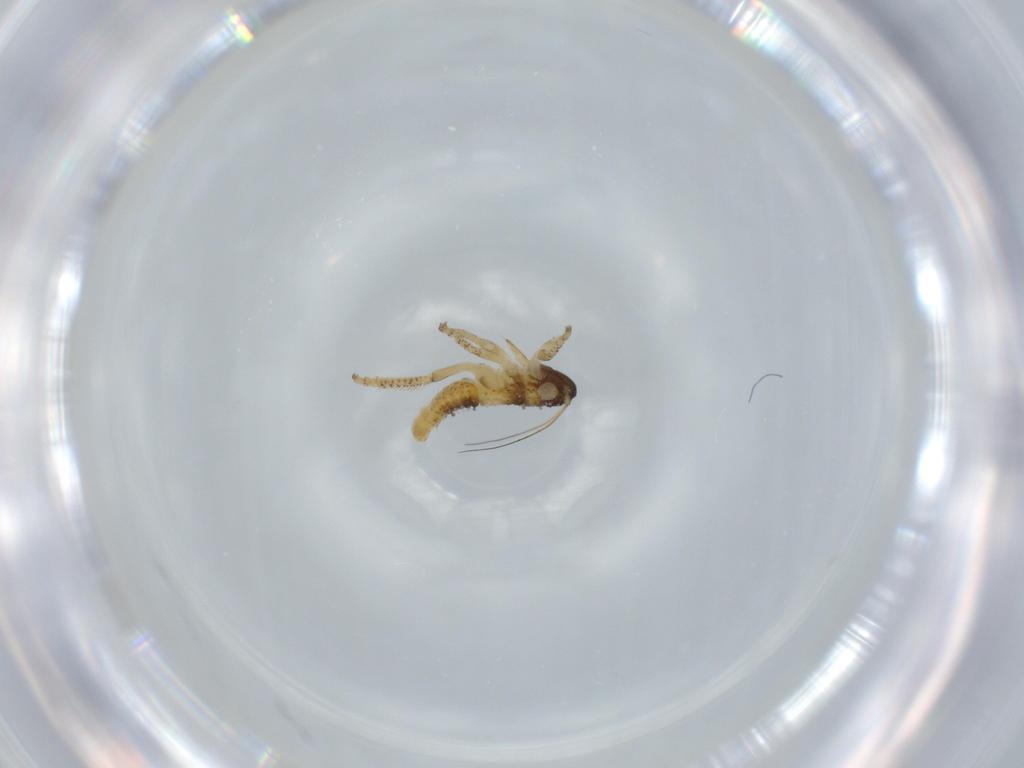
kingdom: Animalia
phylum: Arthropoda
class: Insecta
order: Hemiptera
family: Cicadellidae
